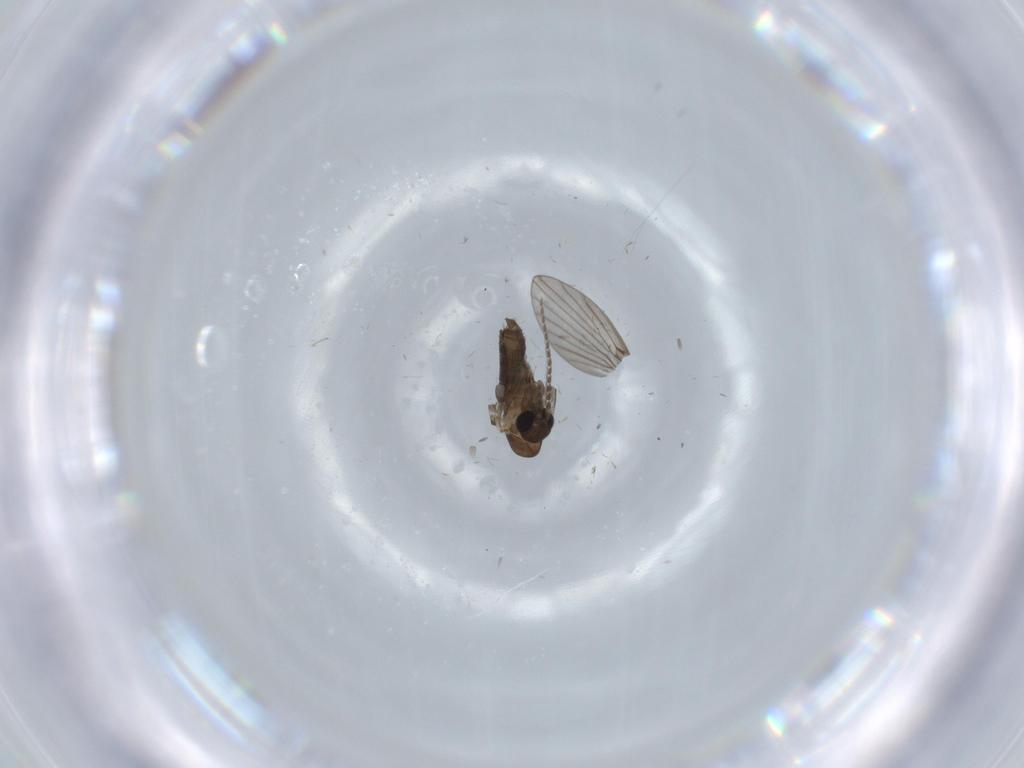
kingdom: Animalia
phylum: Arthropoda
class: Insecta
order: Diptera
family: Psychodidae
